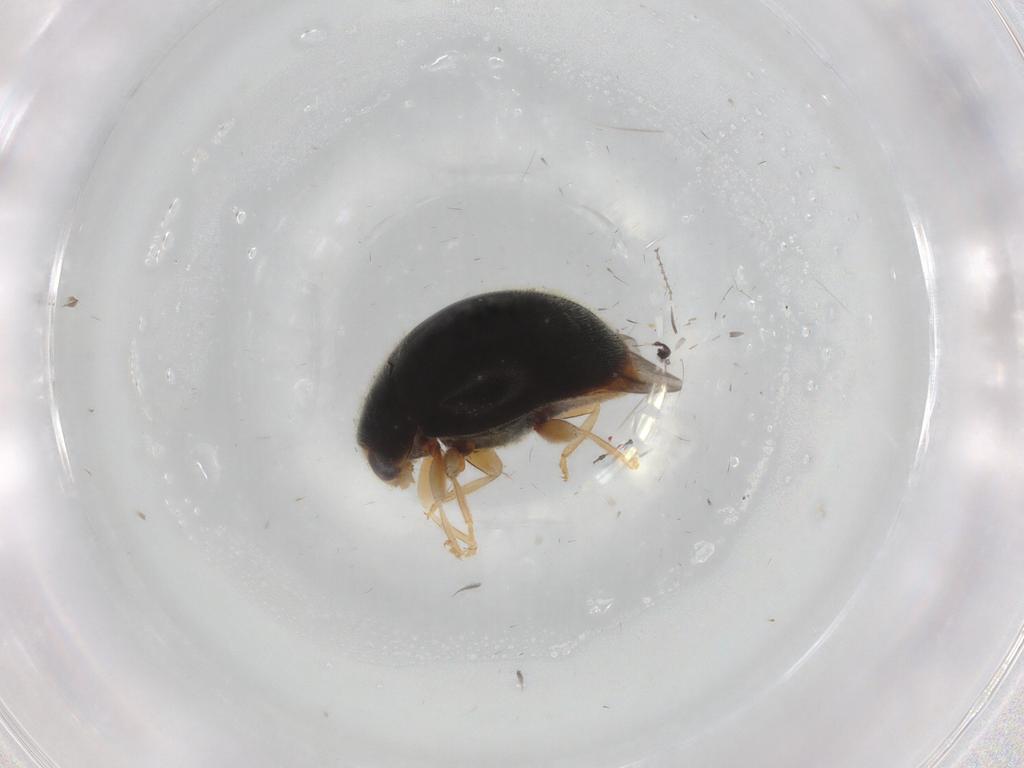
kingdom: Animalia
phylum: Arthropoda
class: Insecta
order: Coleoptera
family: Coccinellidae
